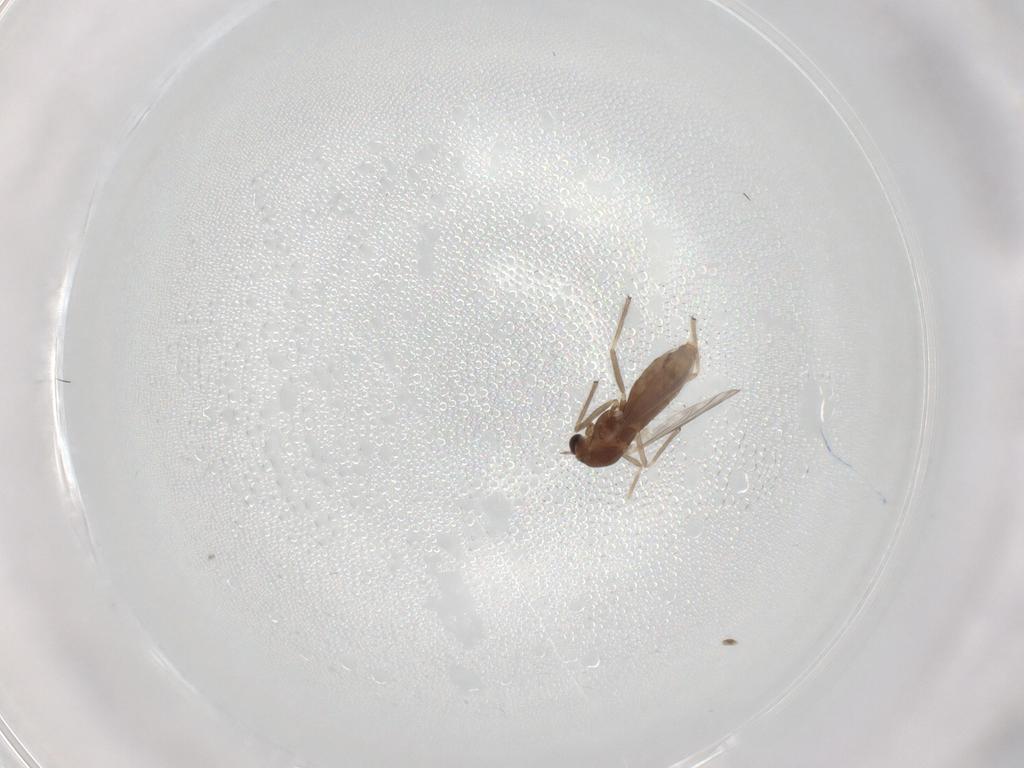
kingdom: Animalia
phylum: Arthropoda
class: Insecta
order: Diptera
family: Chironomidae
